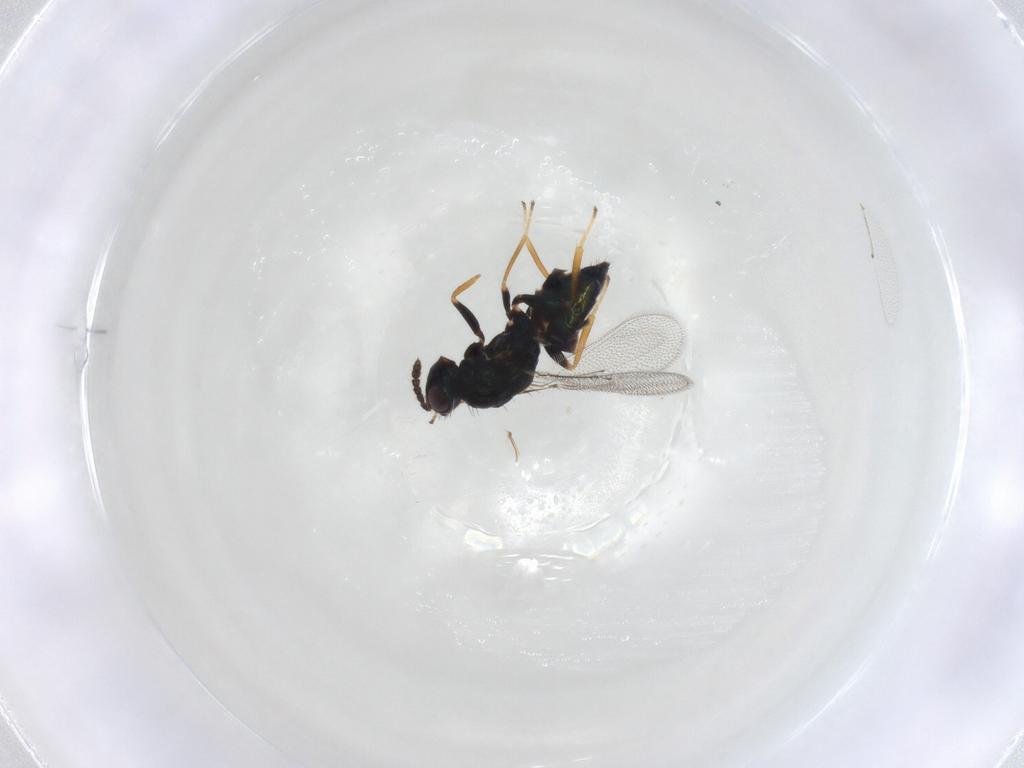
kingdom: Animalia
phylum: Arthropoda
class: Insecta
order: Hymenoptera
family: Eulophidae
